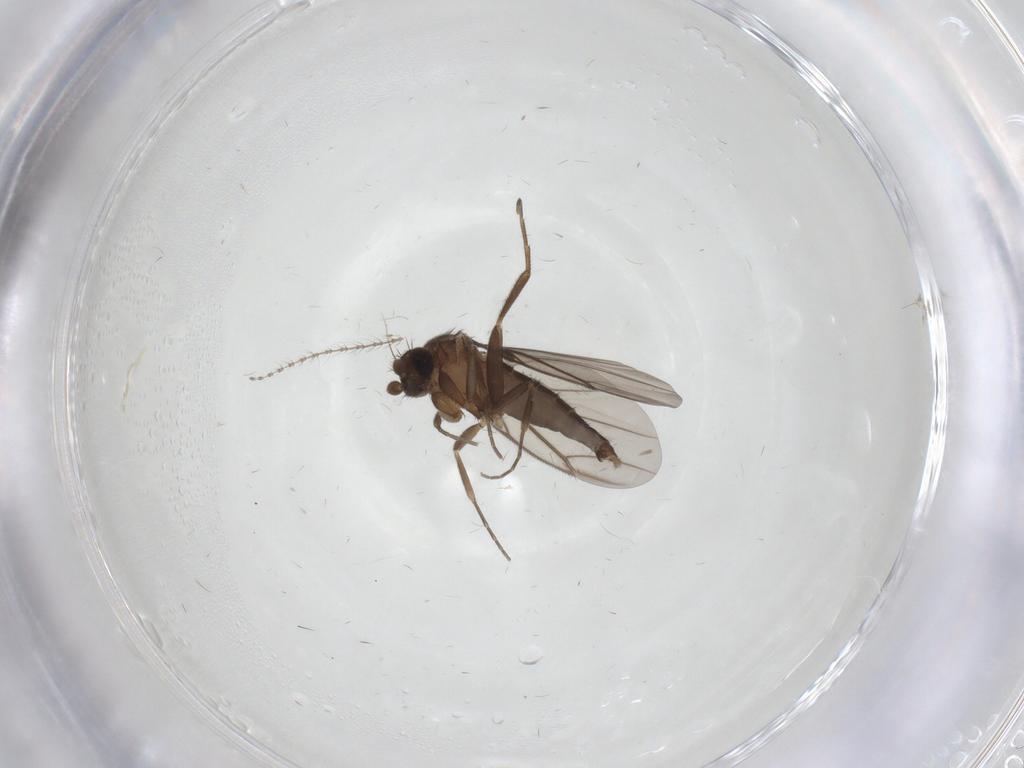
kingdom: Animalia
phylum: Arthropoda
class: Insecta
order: Diptera
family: Phoridae
